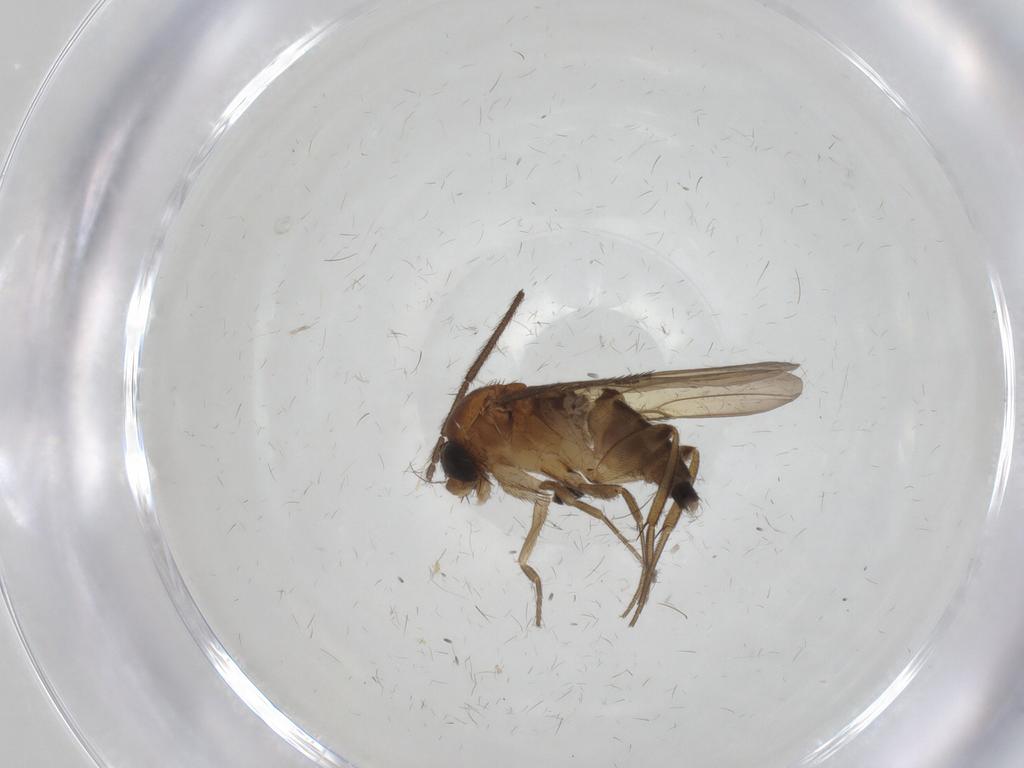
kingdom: Animalia
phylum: Arthropoda
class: Insecta
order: Diptera
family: Phoridae
